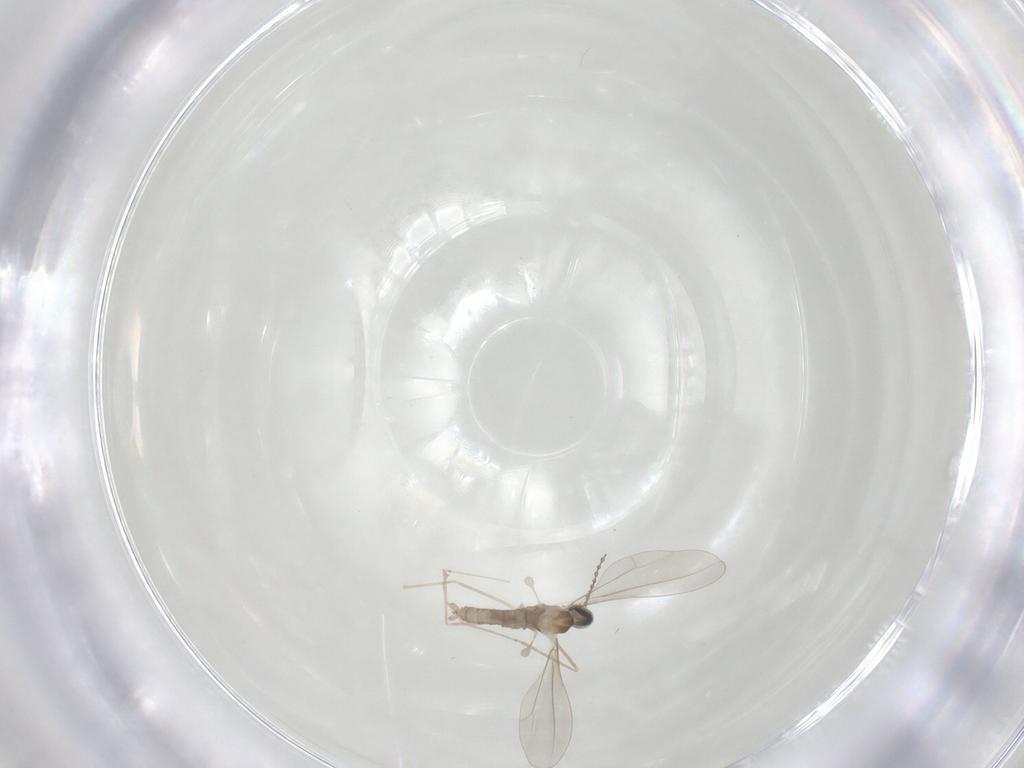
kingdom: Animalia
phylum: Arthropoda
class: Insecta
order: Diptera
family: Cecidomyiidae
